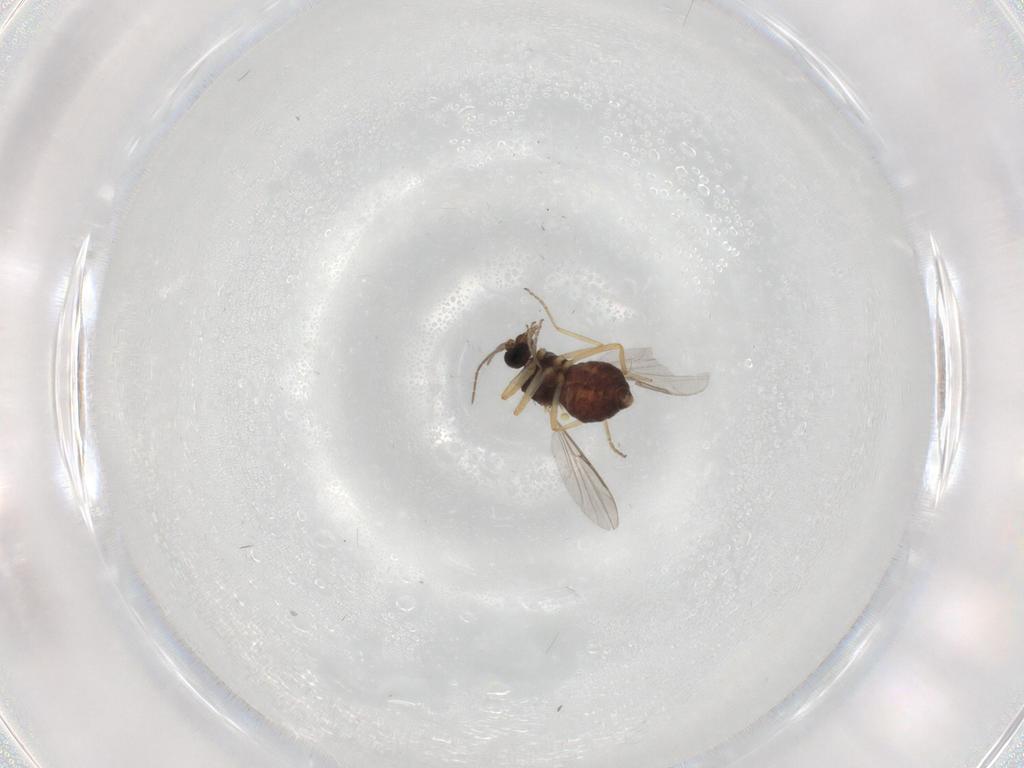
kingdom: Animalia
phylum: Arthropoda
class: Insecta
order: Diptera
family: Ceratopogonidae
